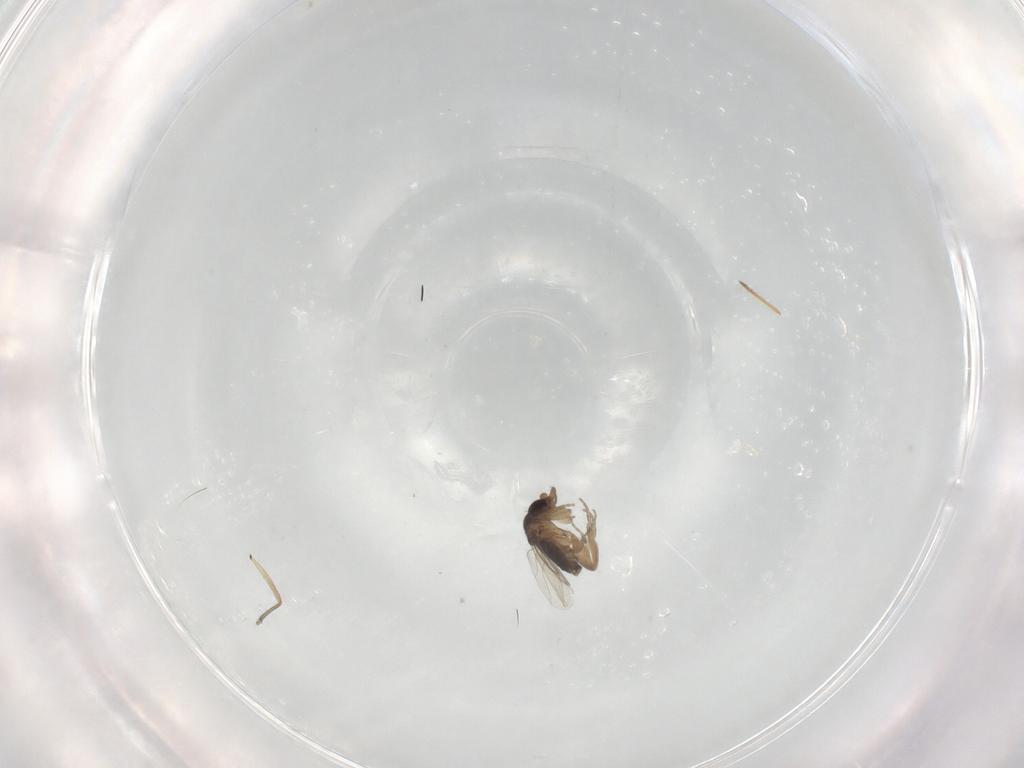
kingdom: Animalia
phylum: Arthropoda
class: Insecta
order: Diptera
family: Sciaridae
